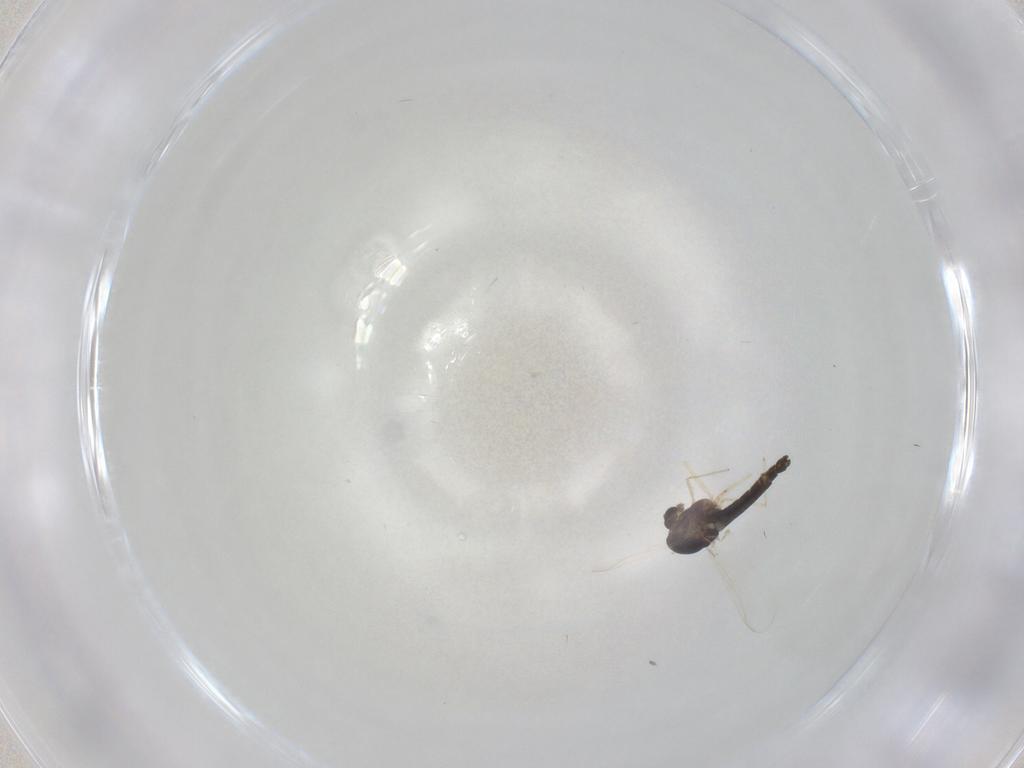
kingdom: Animalia
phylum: Arthropoda
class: Insecta
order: Diptera
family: Chironomidae
